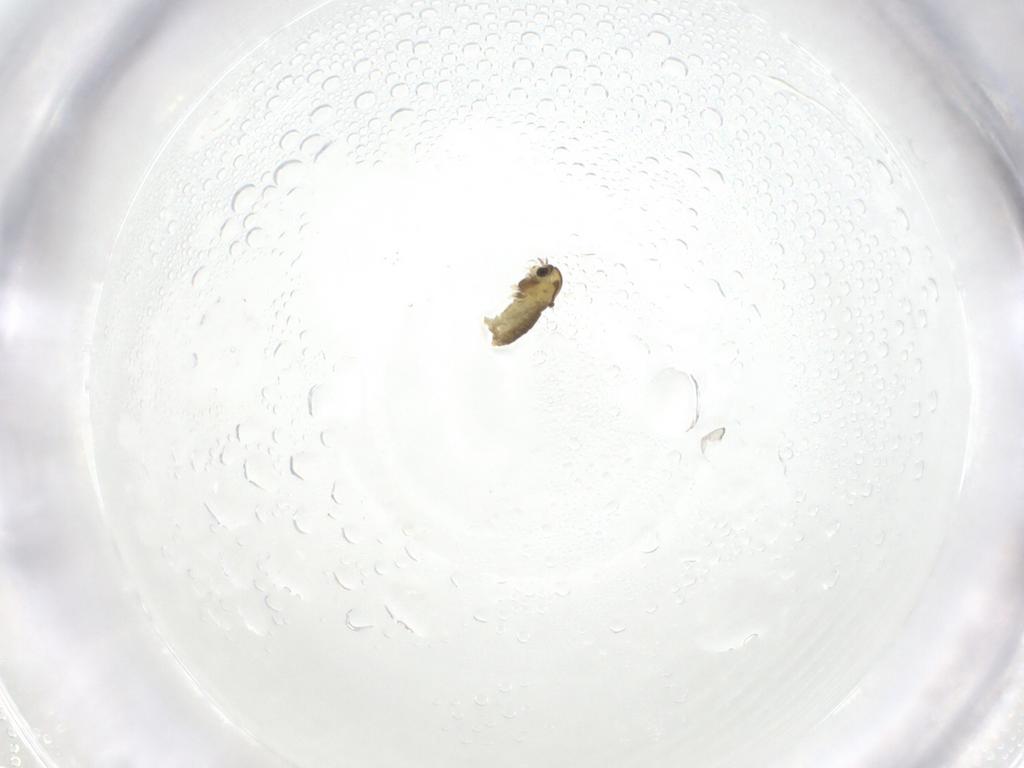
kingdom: Animalia
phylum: Arthropoda
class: Insecta
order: Diptera
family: Chironomidae
